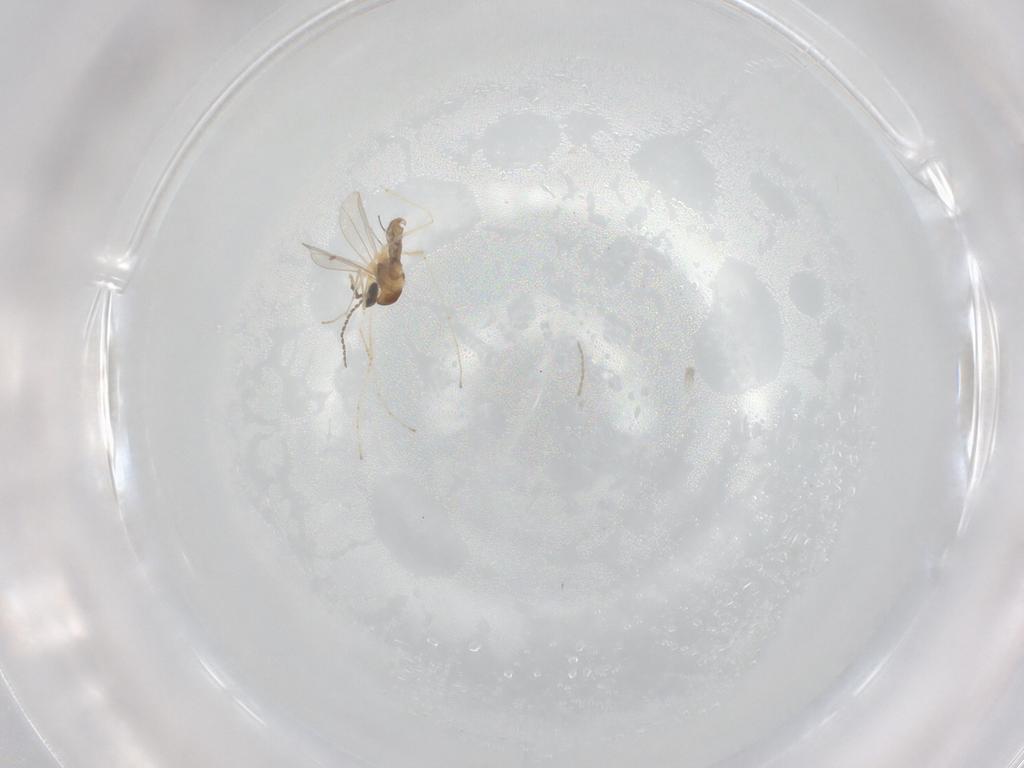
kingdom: Animalia
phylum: Arthropoda
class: Insecta
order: Diptera
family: Cecidomyiidae
